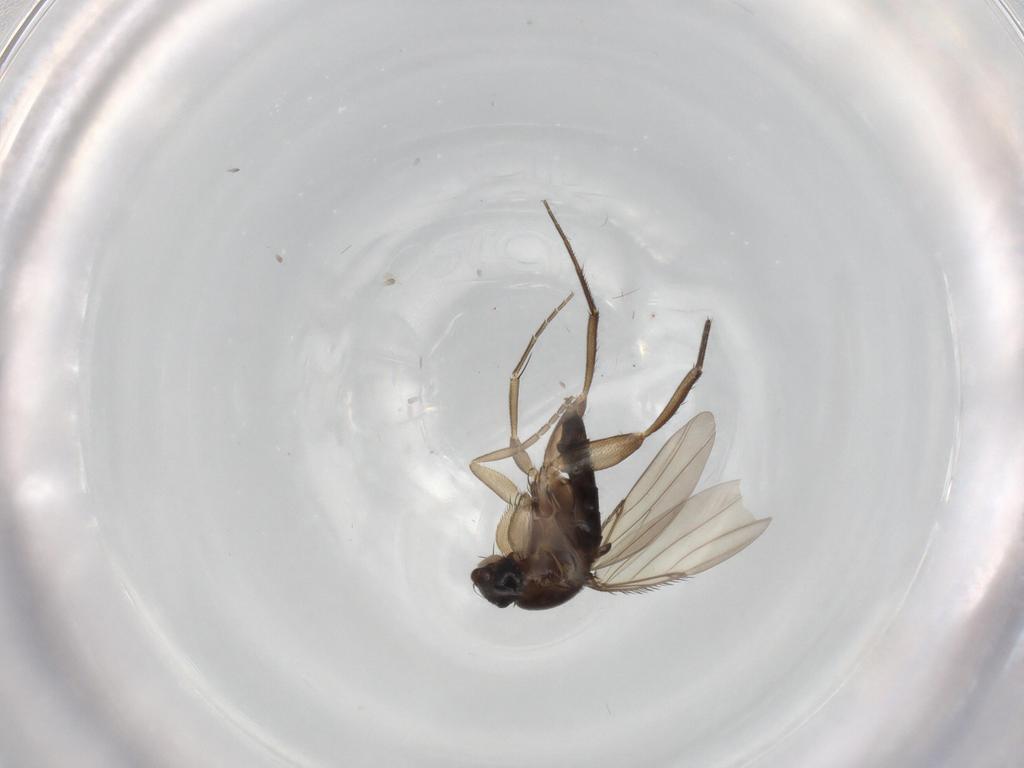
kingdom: Animalia
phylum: Arthropoda
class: Insecta
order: Diptera
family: Phoridae
